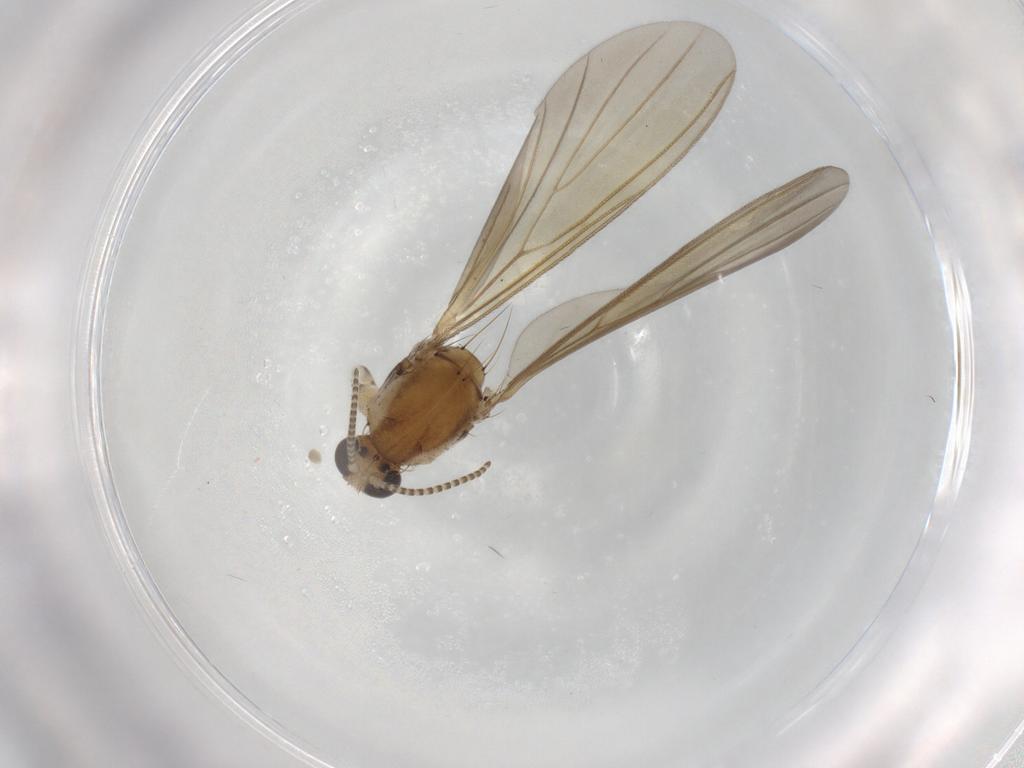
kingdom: Animalia
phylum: Arthropoda
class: Insecta
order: Diptera
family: Cecidomyiidae
